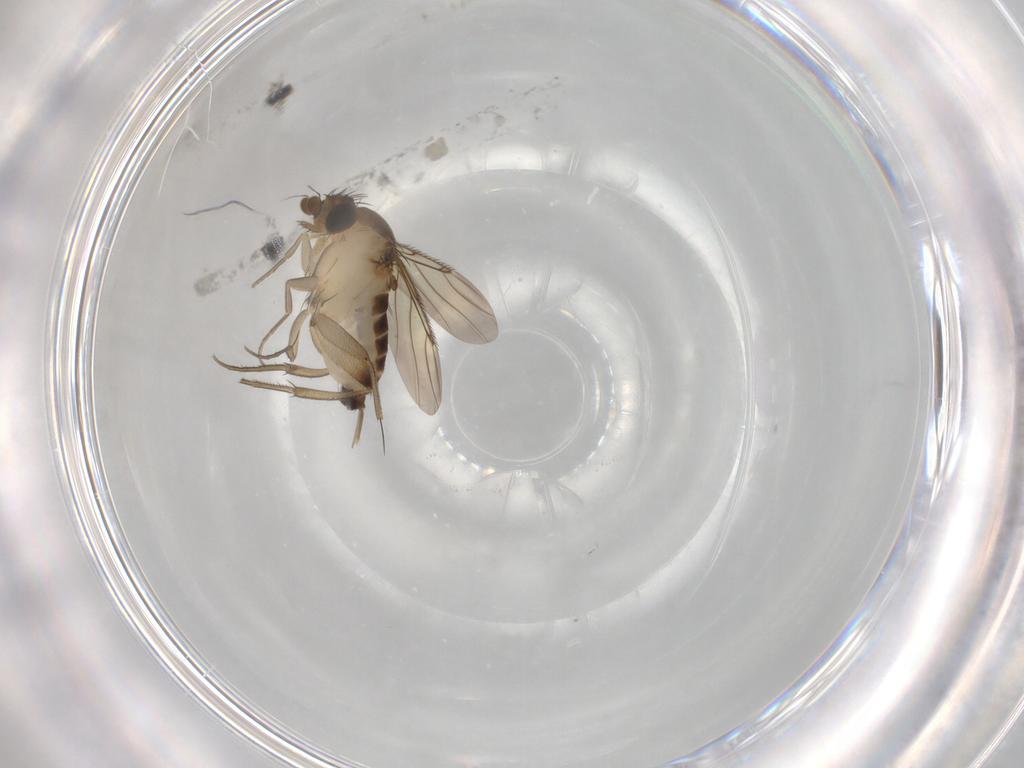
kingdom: Animalia
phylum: Arthropoda
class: Insecta
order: Diptera
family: Phoridae
